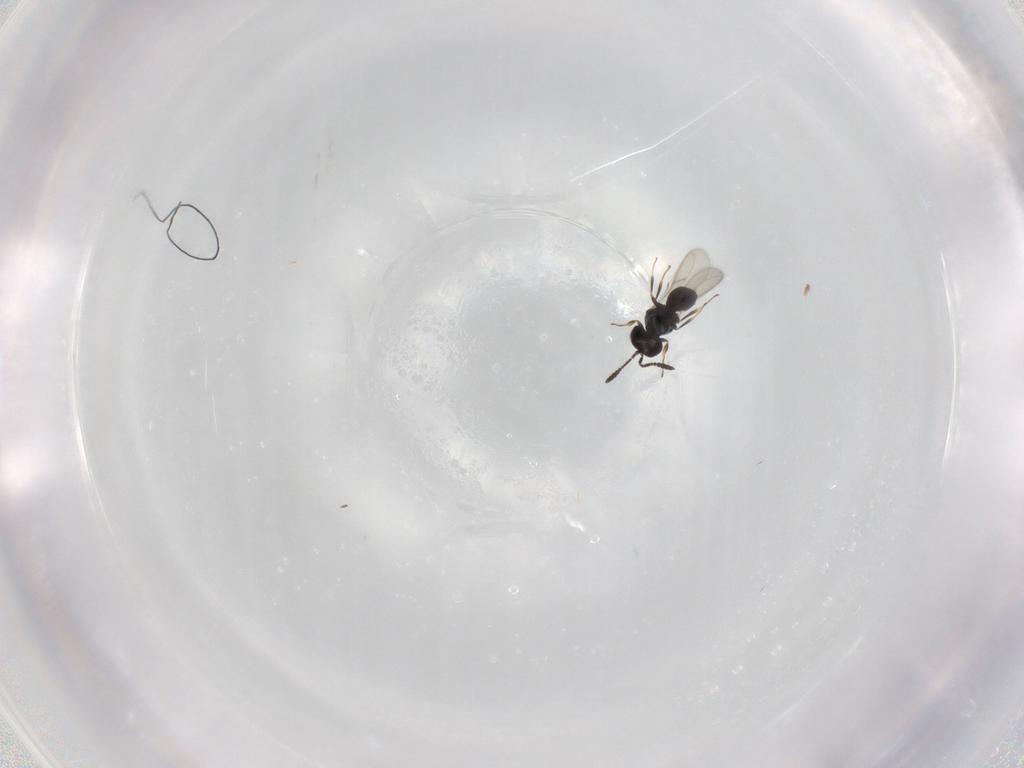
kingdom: Animalia
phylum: Arthropoda
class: Insecta
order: Hymenoptera
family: Scelionidae
